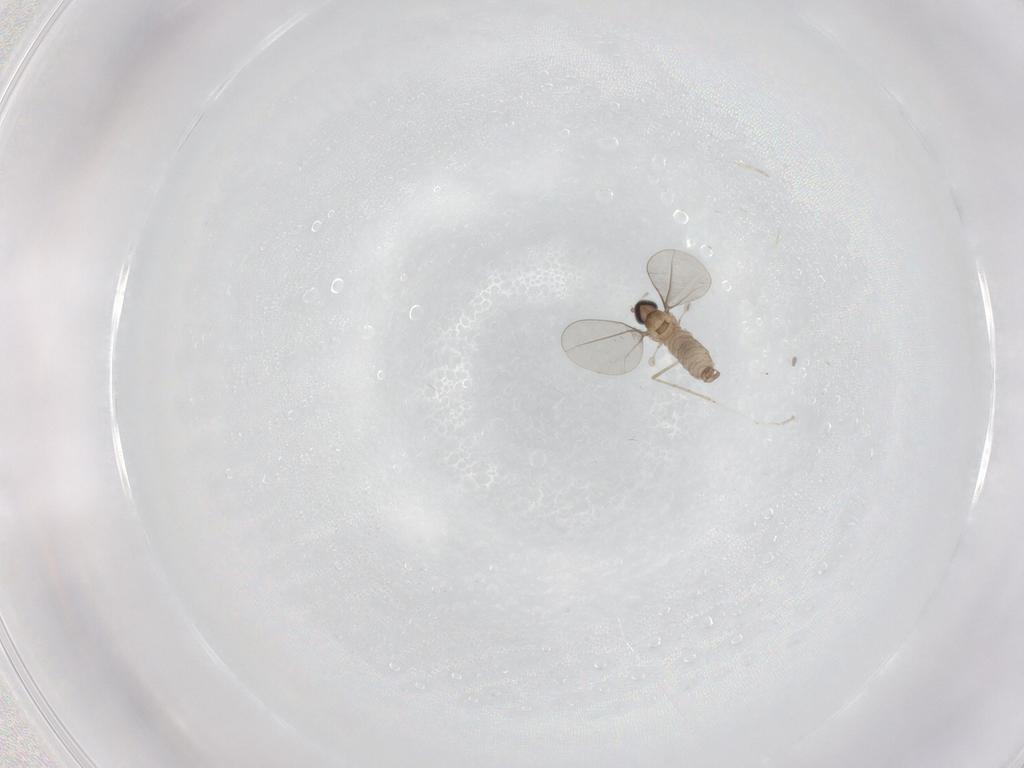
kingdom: Animalia
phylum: Arthropoda
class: Insecta
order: Diptera
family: Cecidomyiidae
